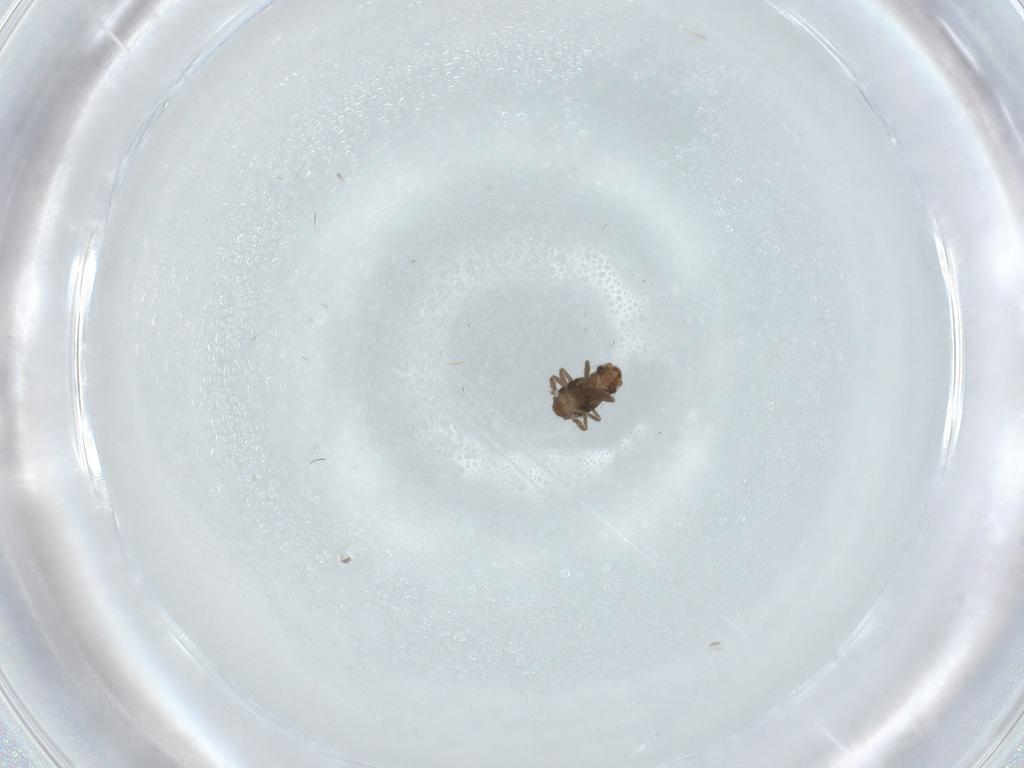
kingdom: Animalia
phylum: Arthropoda
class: Insecta
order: Diptera
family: Phoridae
